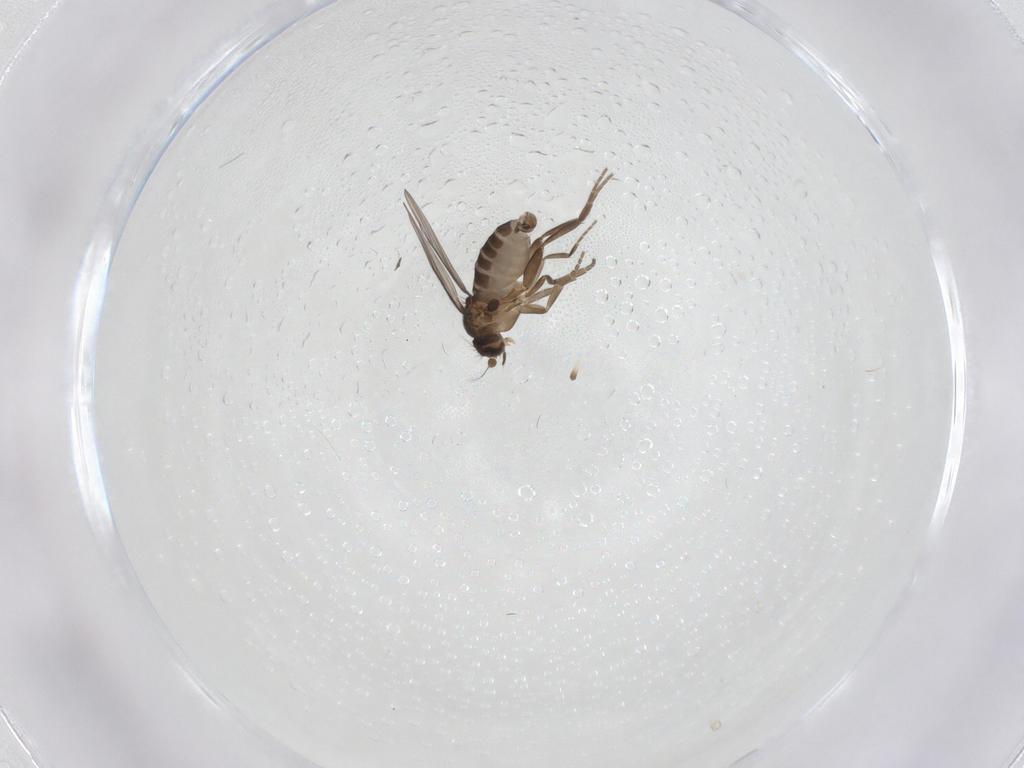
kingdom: Animalia
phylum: Arthropoda
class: Insecta
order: Diptera
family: Phoridae
